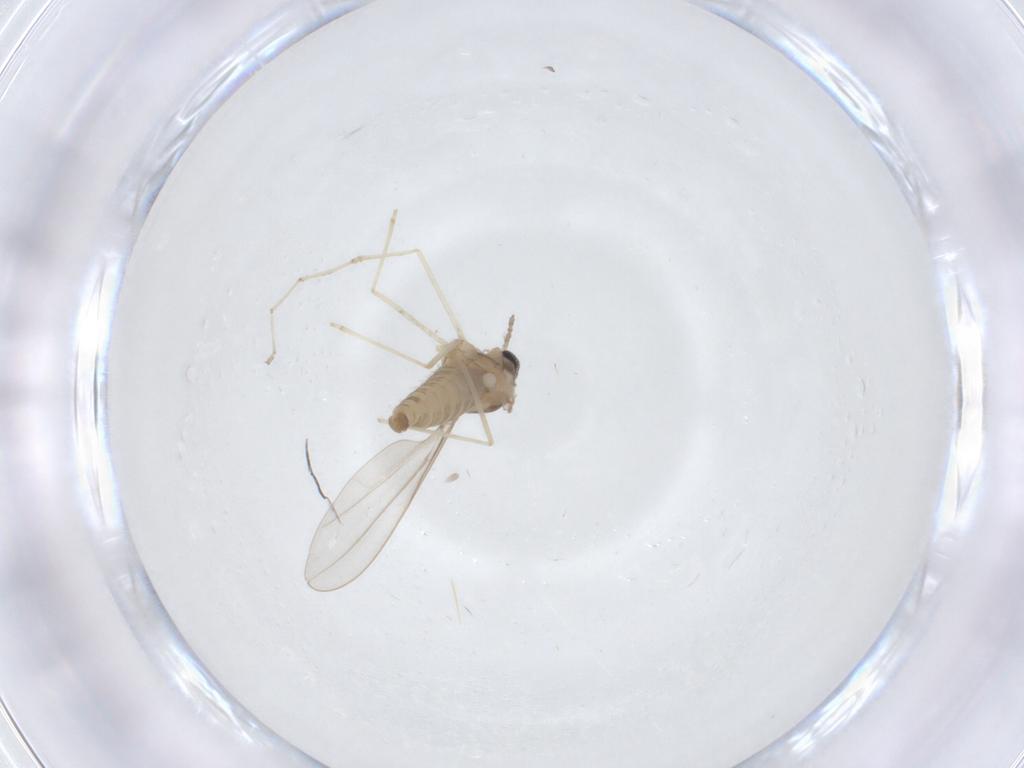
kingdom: Animalia
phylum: Arthropoda
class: Insecta
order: Diptera
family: Cecidomyiidae
